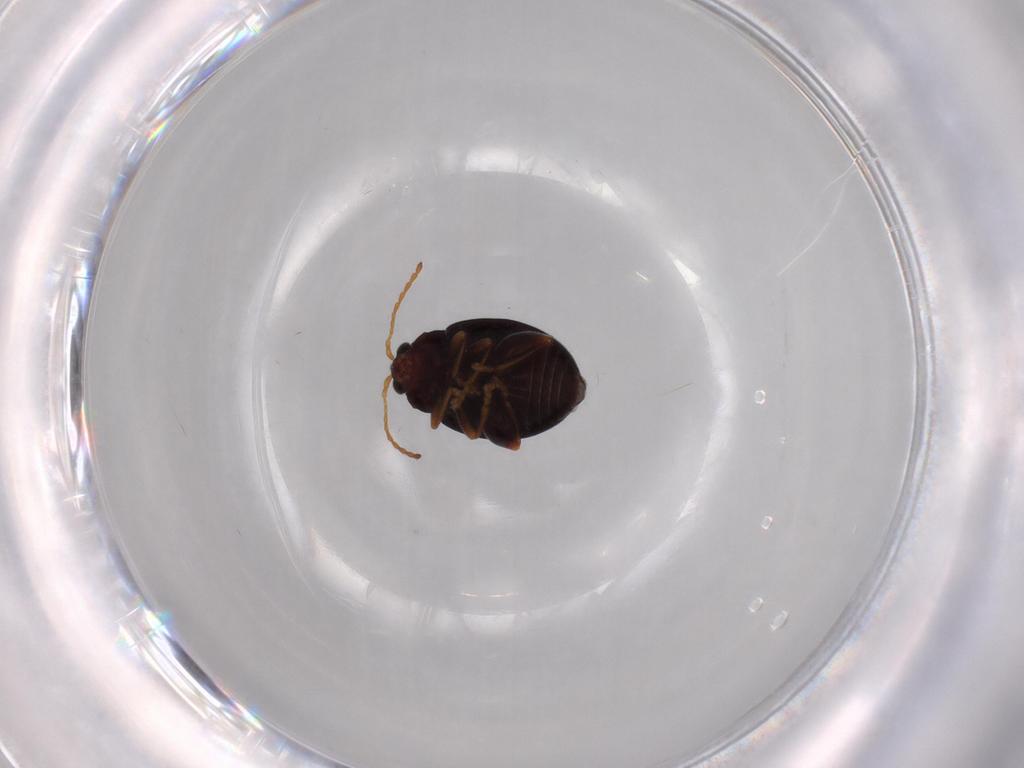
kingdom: Animalia
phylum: Arthropoda
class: Insecta
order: Coleoptera
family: Chrysomelidae
